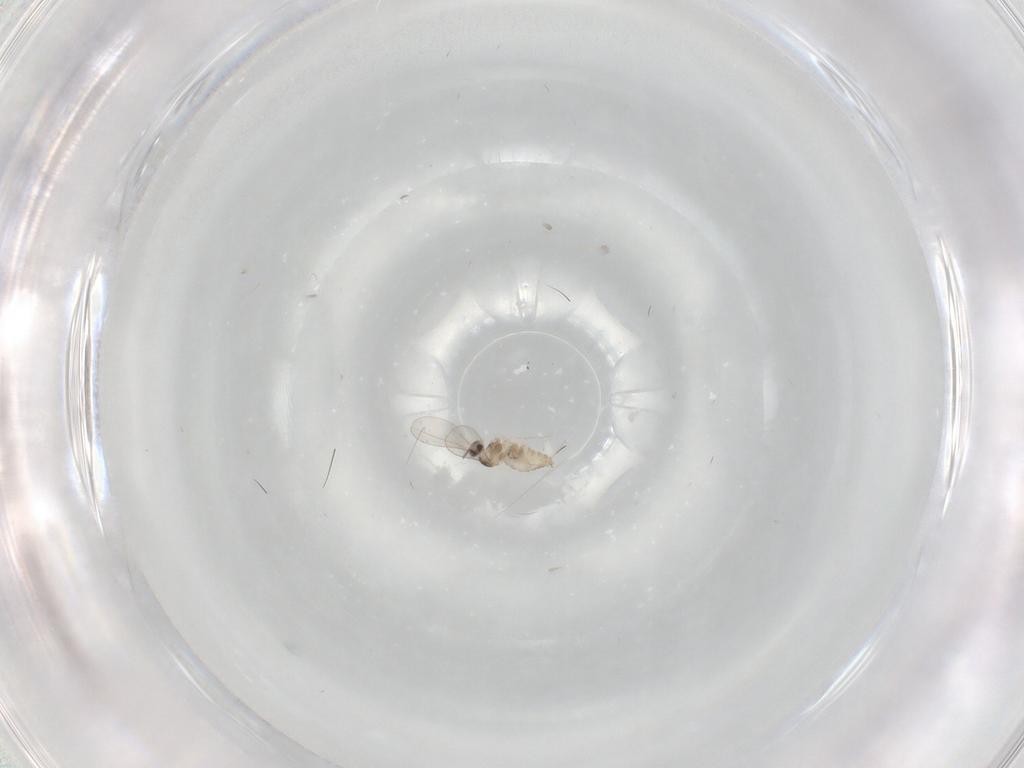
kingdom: Animalia
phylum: Arthropoda
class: Insecta
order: Diptera
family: Cecidomyiidae
